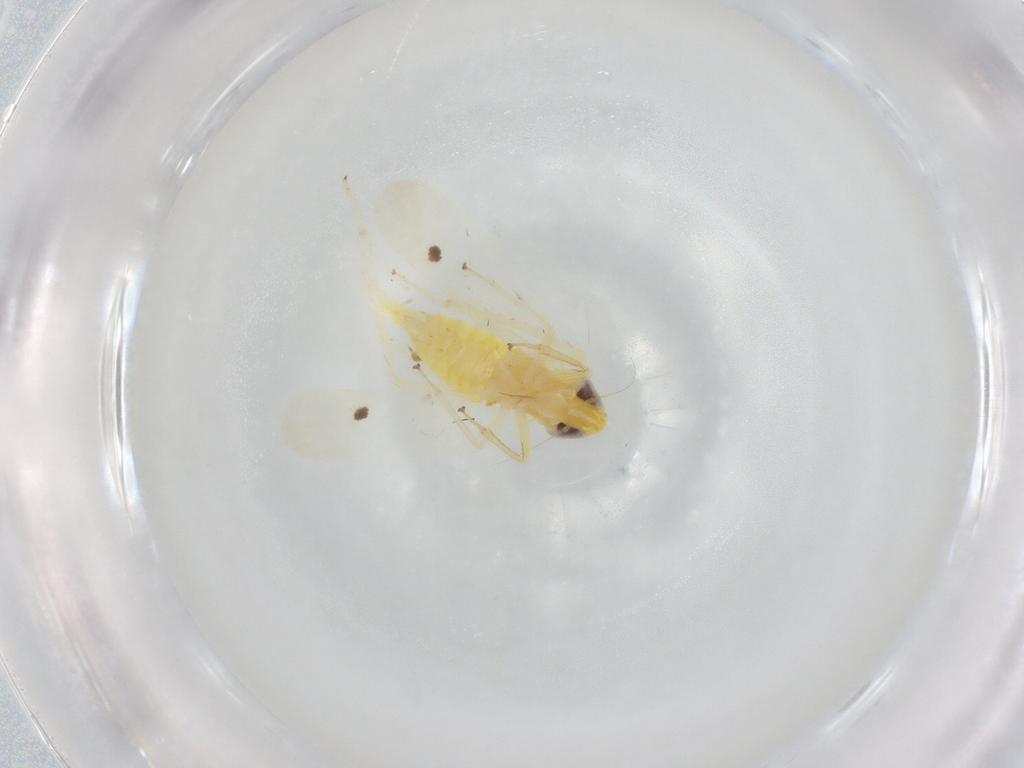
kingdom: Animalia
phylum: Arthropoda
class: Insecta
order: Hemiptera
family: Cicadellidae
